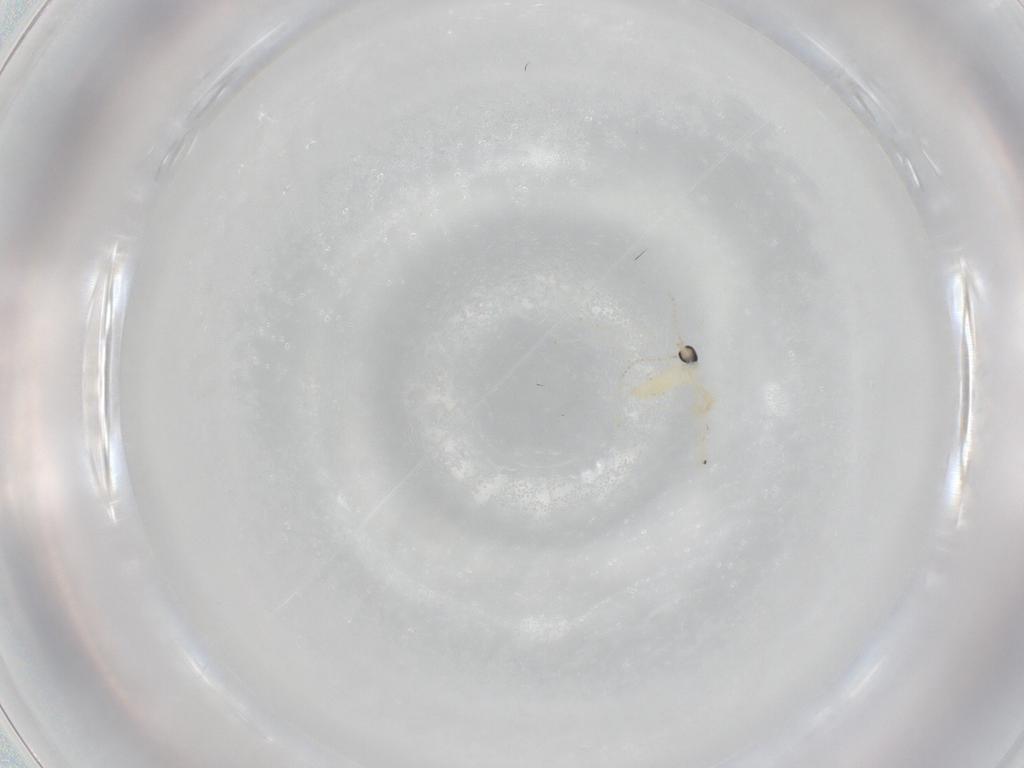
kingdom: Animalia
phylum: Arthropoda
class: Insecta
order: Diptera
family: Cecidomyiidae
